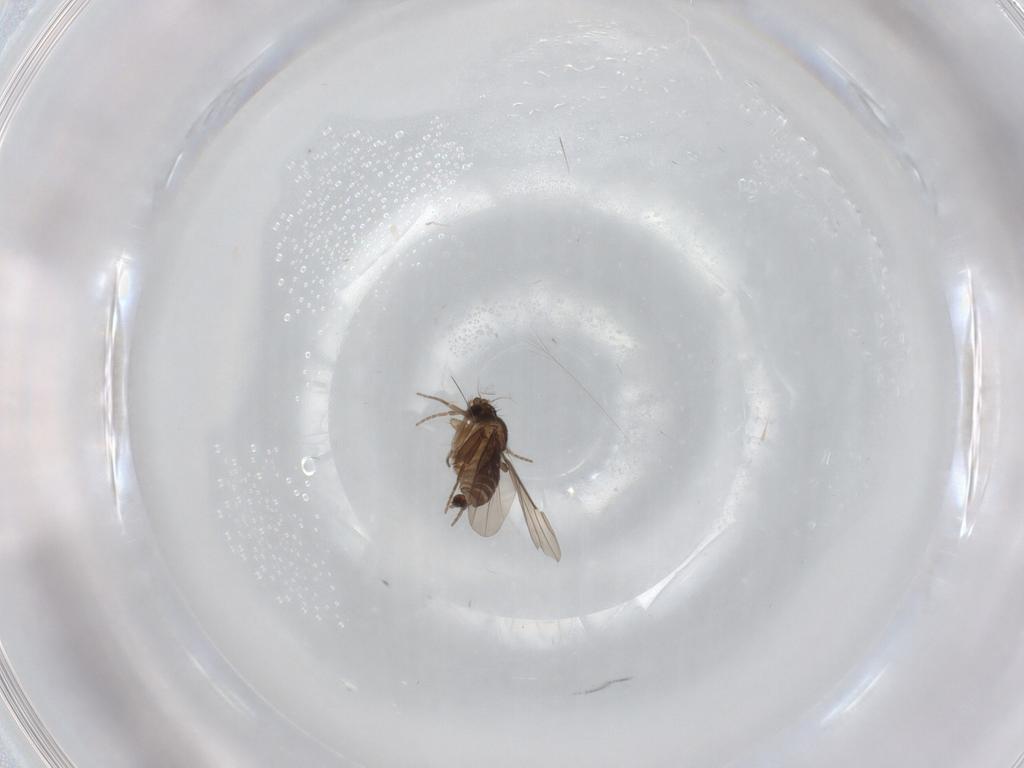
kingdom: Animalia
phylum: Arthropoda
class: Insecta
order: Diptera
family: Phoridae
